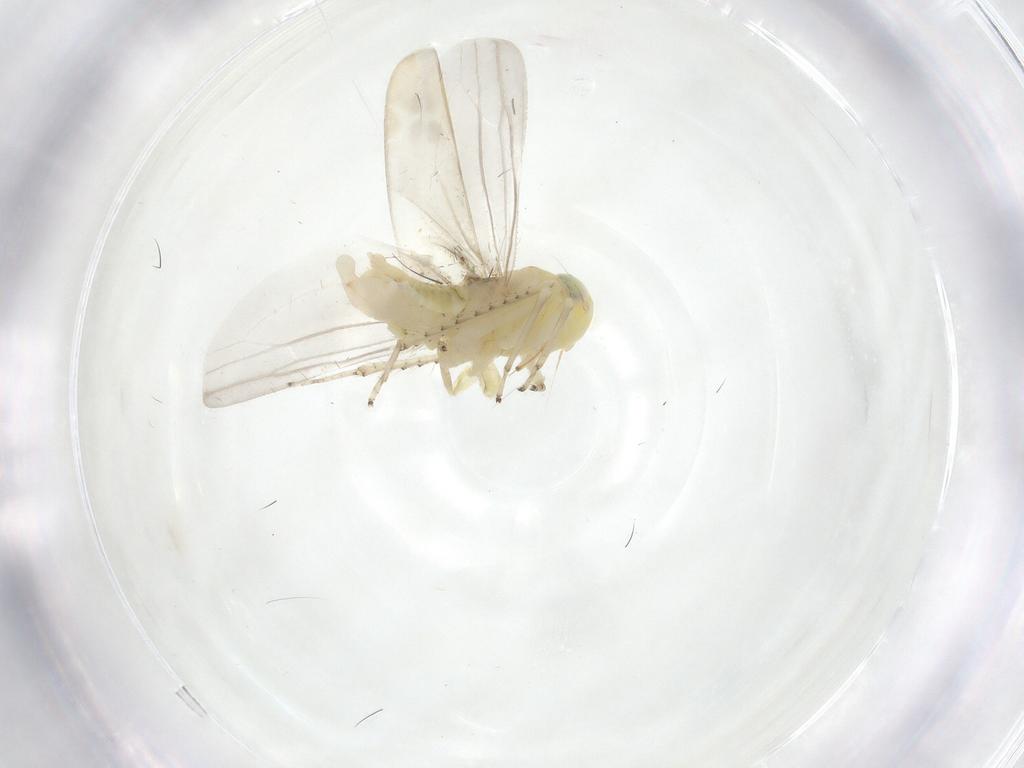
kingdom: Animalia
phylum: Arthropoda
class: Insecta
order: Hemiptera
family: Cicadellidae
